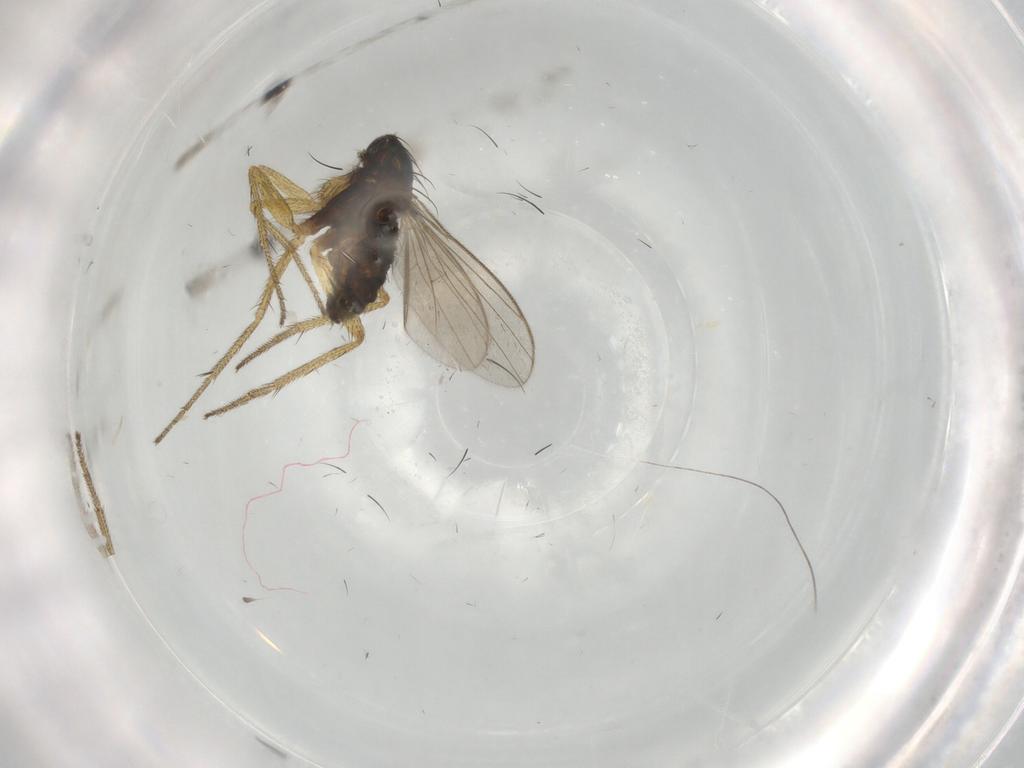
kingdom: Animalia
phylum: Arthropoda
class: Insecta
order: Diptera
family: Dolichopodidae
